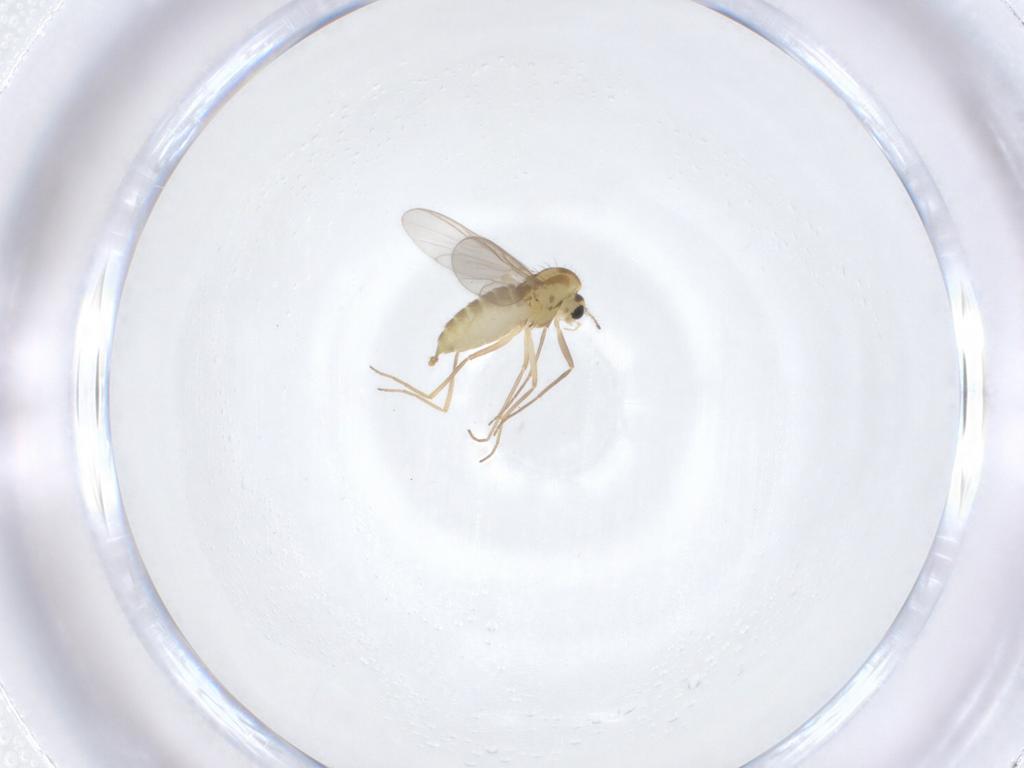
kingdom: Animalia
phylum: Arthropoda
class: Insecta
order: Diptera
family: Chironomidae
